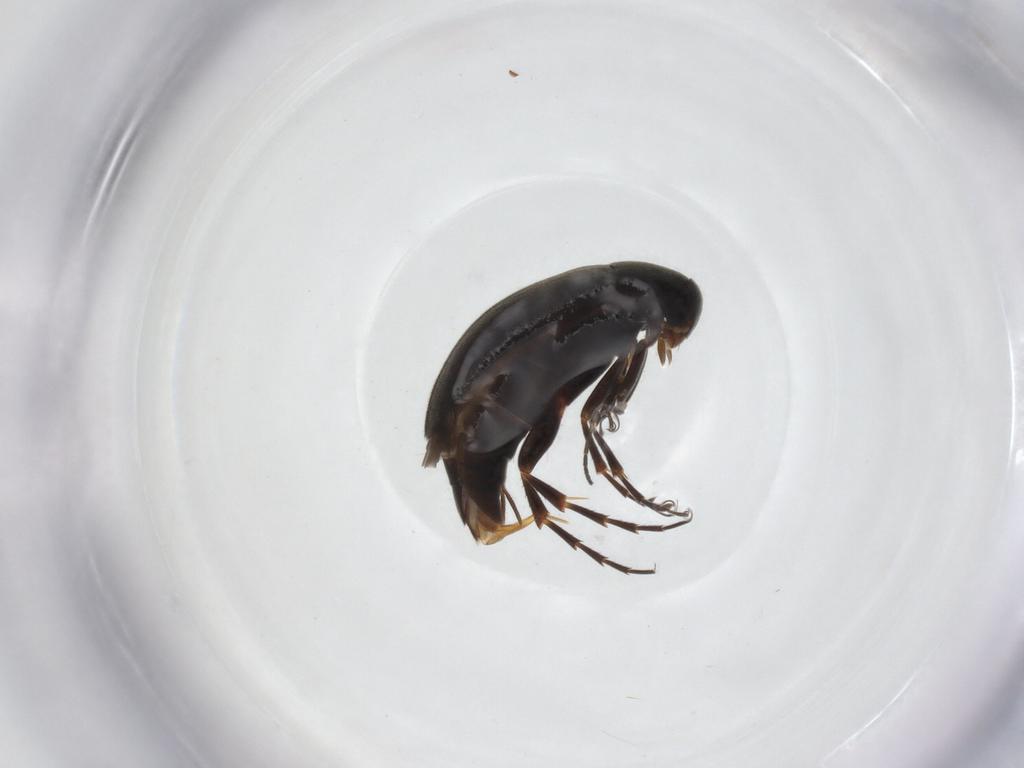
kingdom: Animalia
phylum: Arthropoda
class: Insecta
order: Coleoptera
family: Scraptiidae
